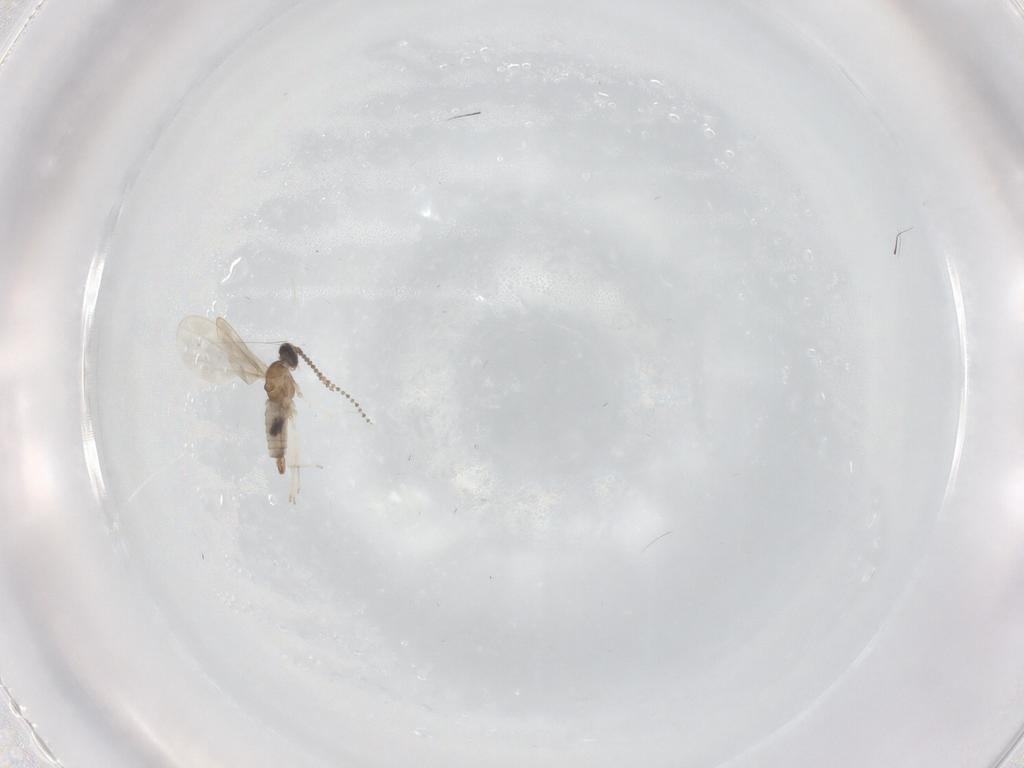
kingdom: Animalia
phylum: Arthropoda
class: Insecta
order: Diptera
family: Cecidomyiidae
